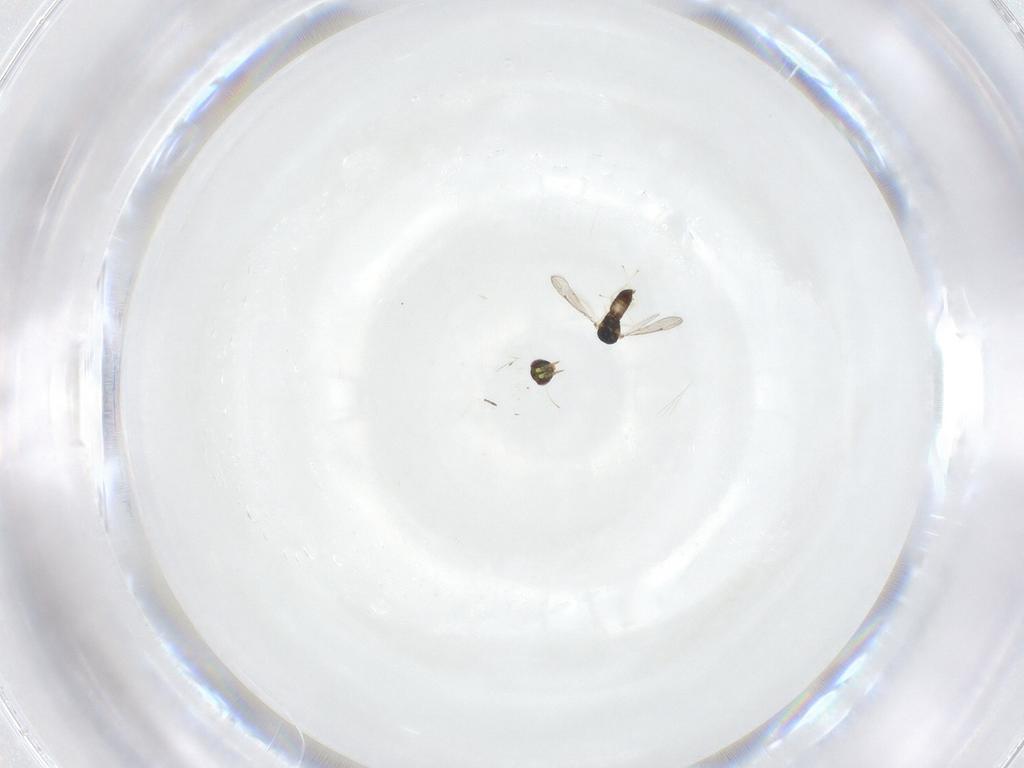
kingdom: Animalia
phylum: Arthropoda
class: Insecta
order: Hymenoptera
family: Eulophidae
